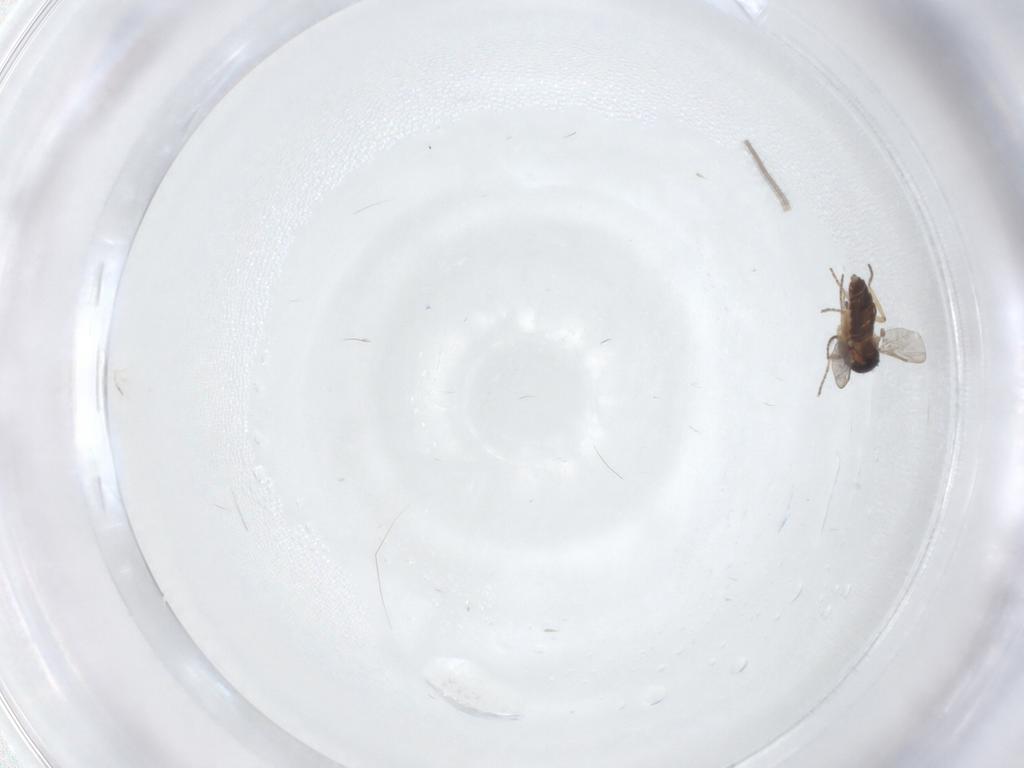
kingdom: Animalia
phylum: Arthropoda
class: Insecta
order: Diptera
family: Ceratopogonidae
